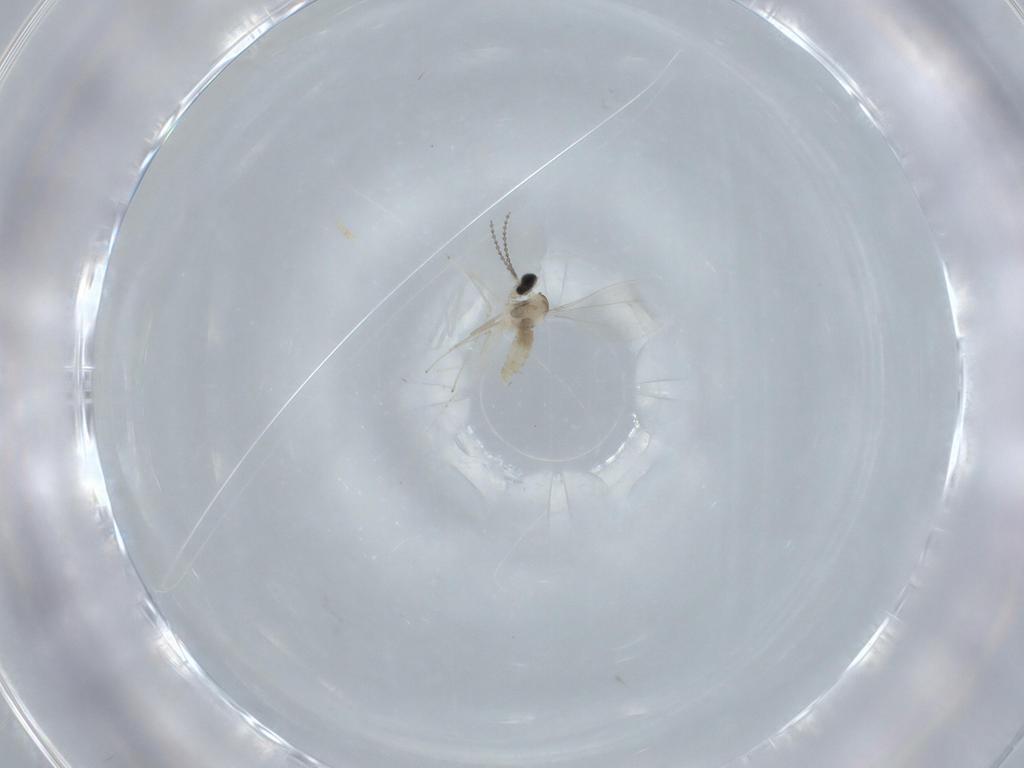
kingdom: Animalia
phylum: Arthropoda
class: Insecta
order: Diptera
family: Cecidomyiidae
